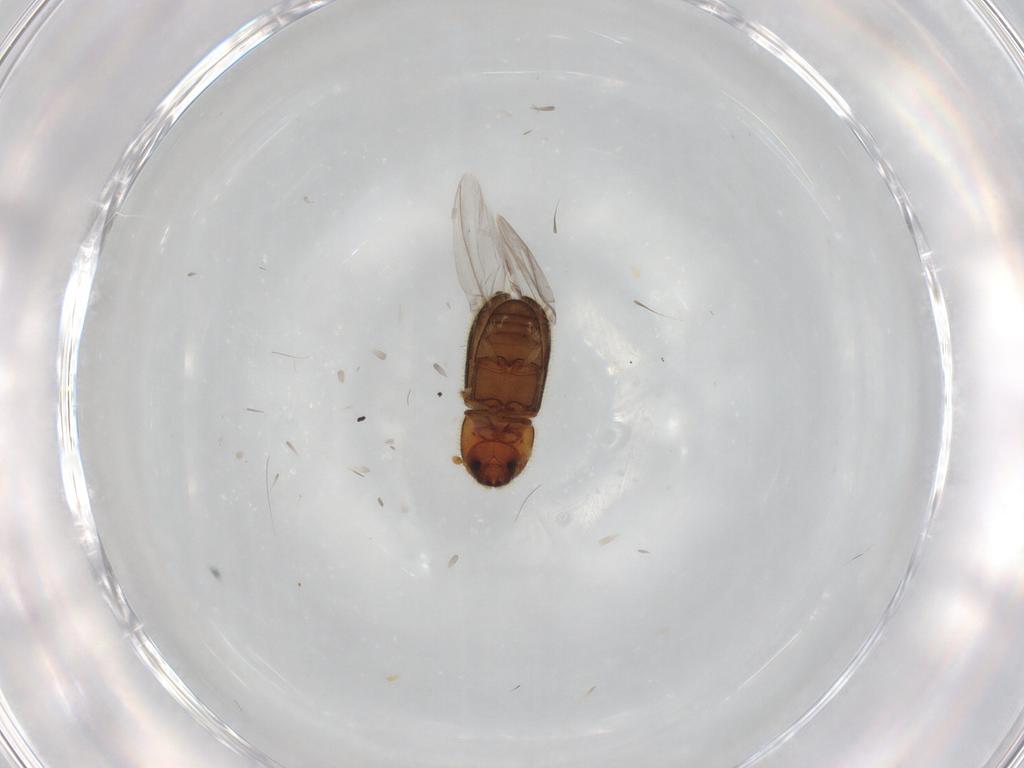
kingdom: Animalia
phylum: Arthropoda
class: Insecta
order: Coleoptera
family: Curculionidae
